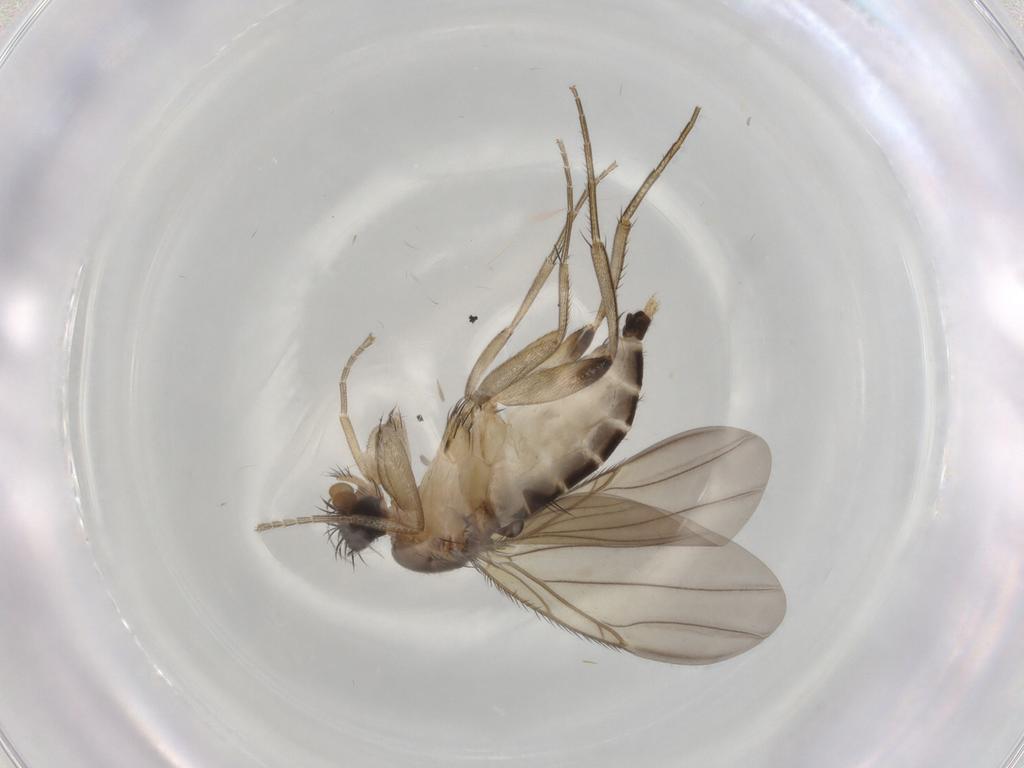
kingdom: Animalia
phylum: Arthropoda
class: Insecta
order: Diptera
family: Phoridae
